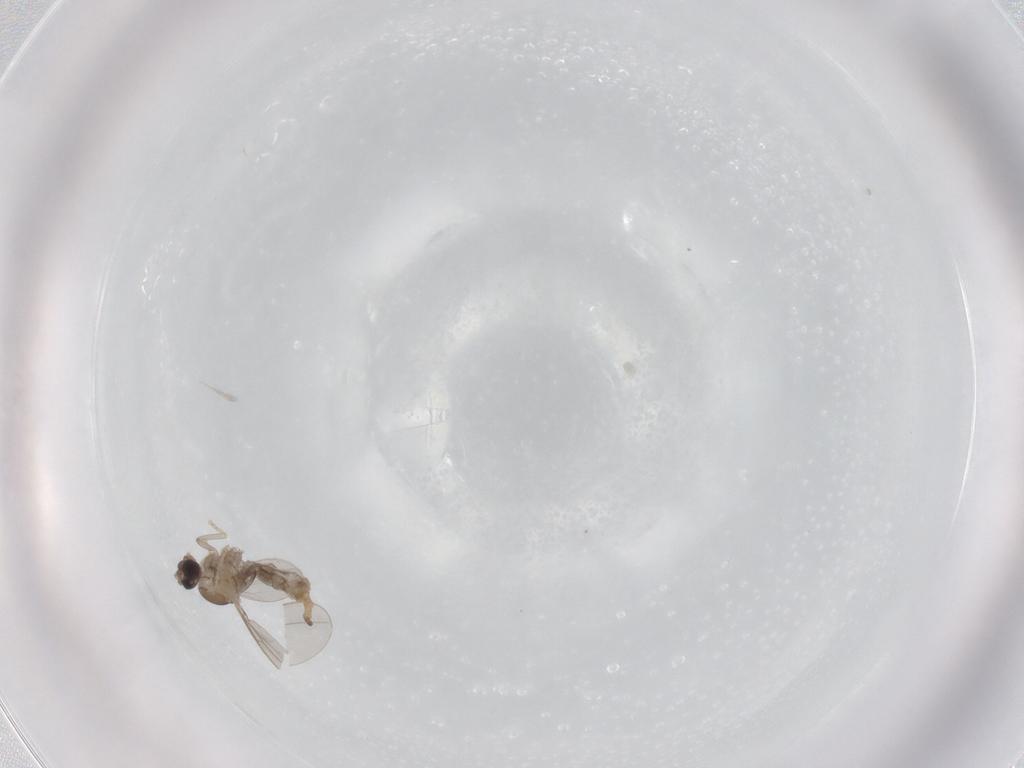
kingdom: Animalia
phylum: Arthropoda
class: Insecta
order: Diptera
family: Cecidomyiidae
